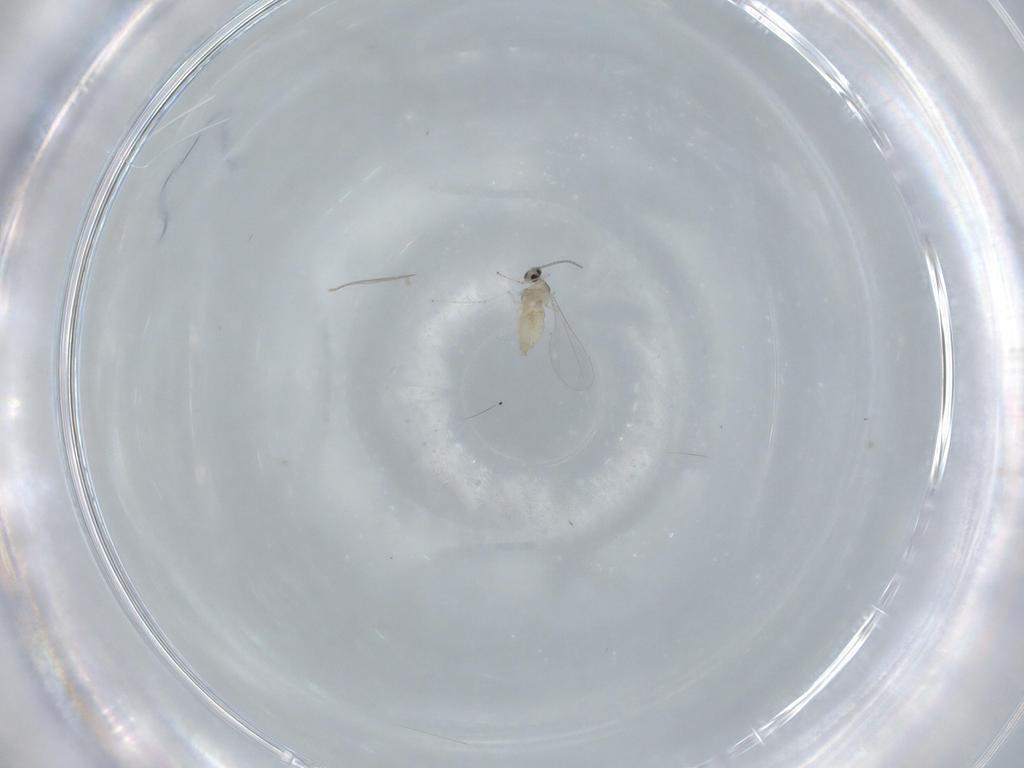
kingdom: Animalia
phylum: Arthropoda
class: Insecta
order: Diptera
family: Cecidomyiidae
